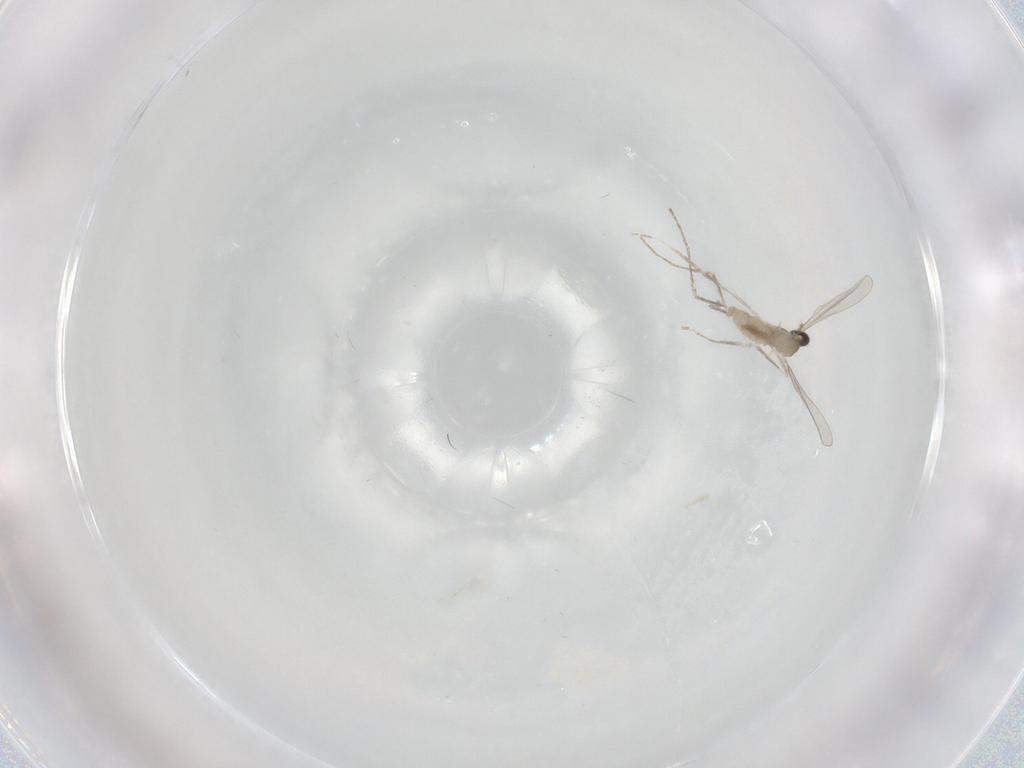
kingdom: Animalia
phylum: Arthropoda
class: Insecta
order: Diptera
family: Cecidomyiidae
